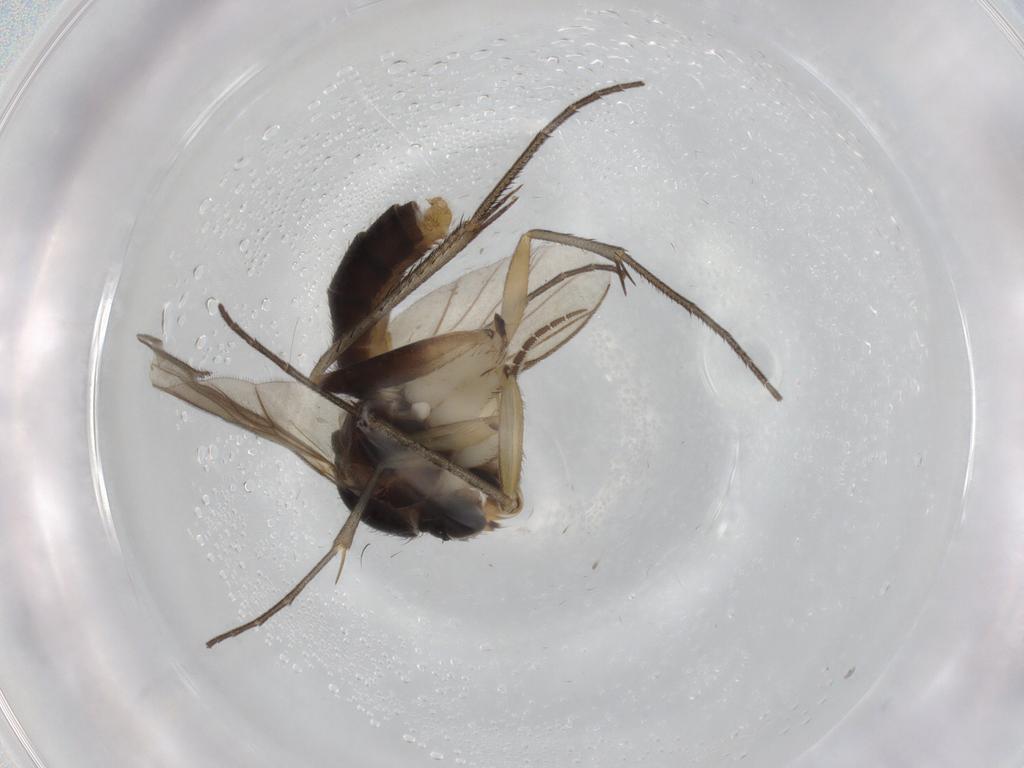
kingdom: Animalia
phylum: Arthropoda
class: Insecta
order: Diptera
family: Mycetophilidae
